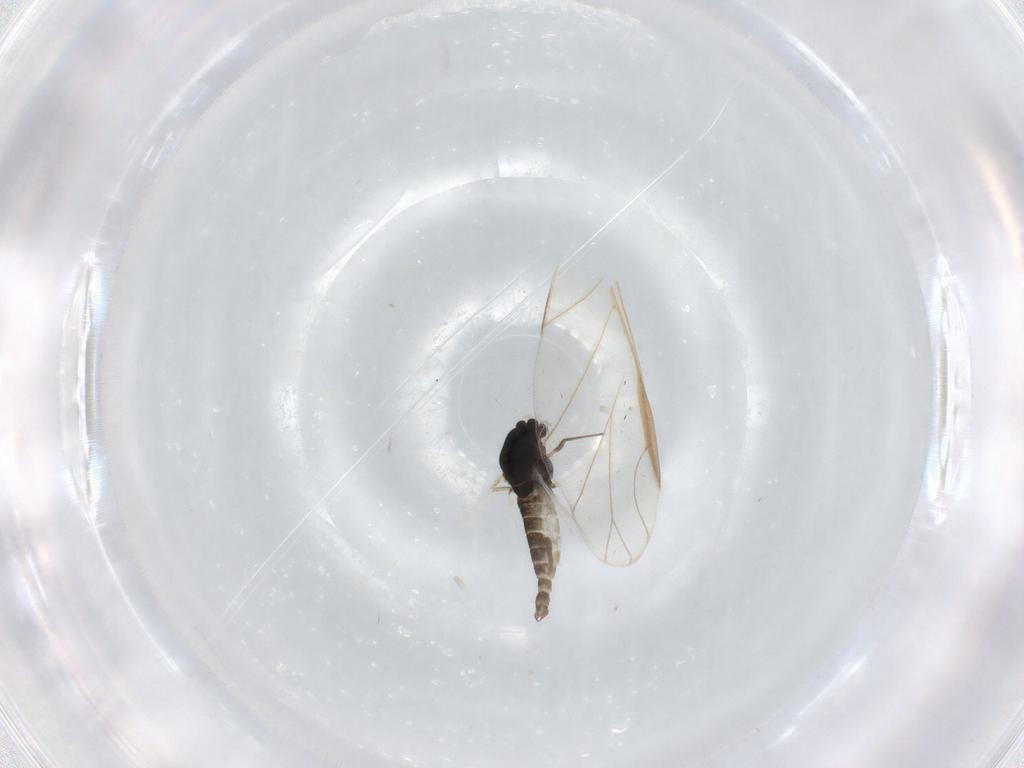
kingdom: Animalia
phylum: Arthropoda
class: Insecta
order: Diptera
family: Chironomidae
